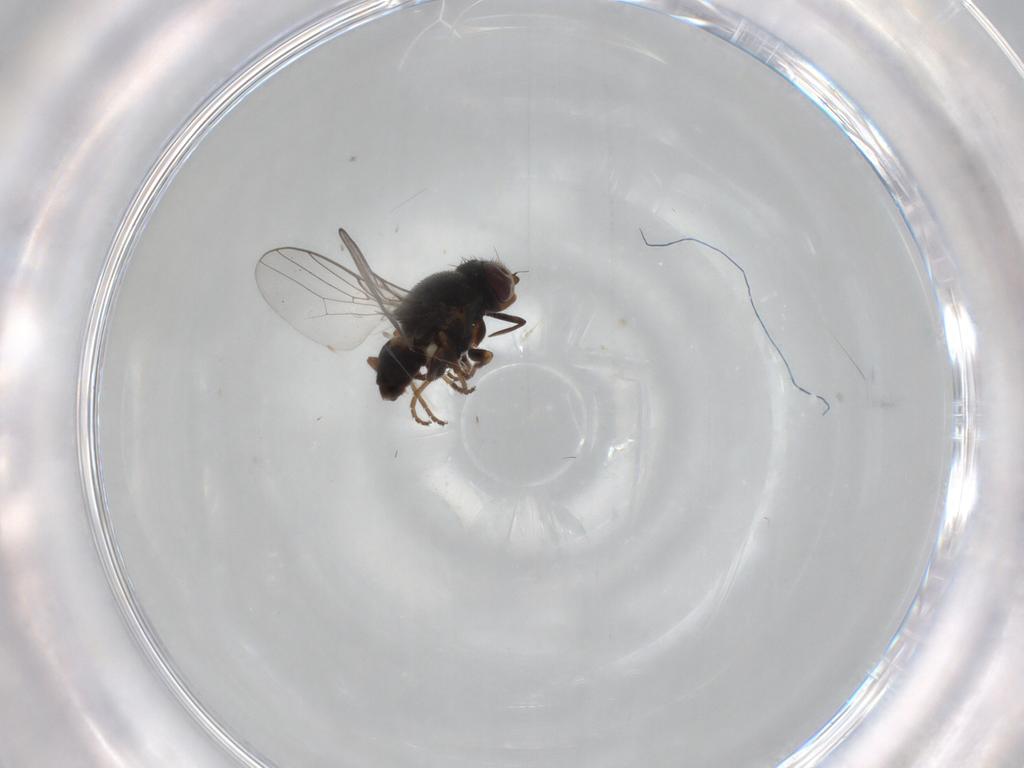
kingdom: Animalia
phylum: Arthropoda
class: Insecta
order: Diptera
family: Chloropidae
